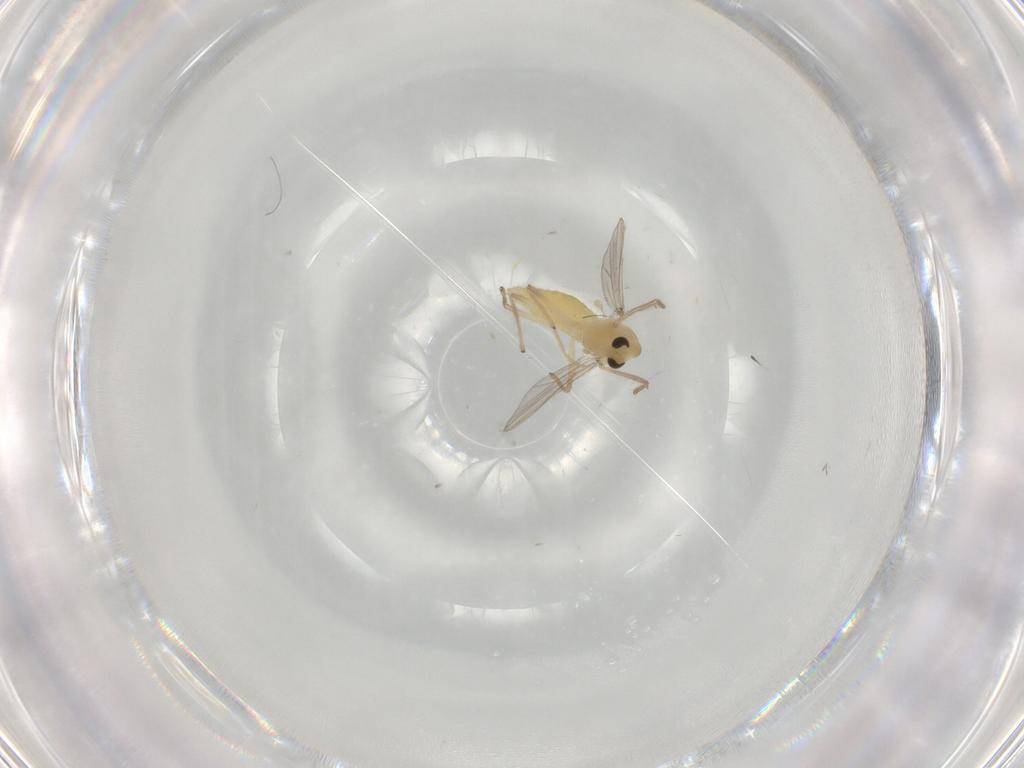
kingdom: Animalia
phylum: Arthropoda
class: Insecta
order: Diptera
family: Chironomidae
